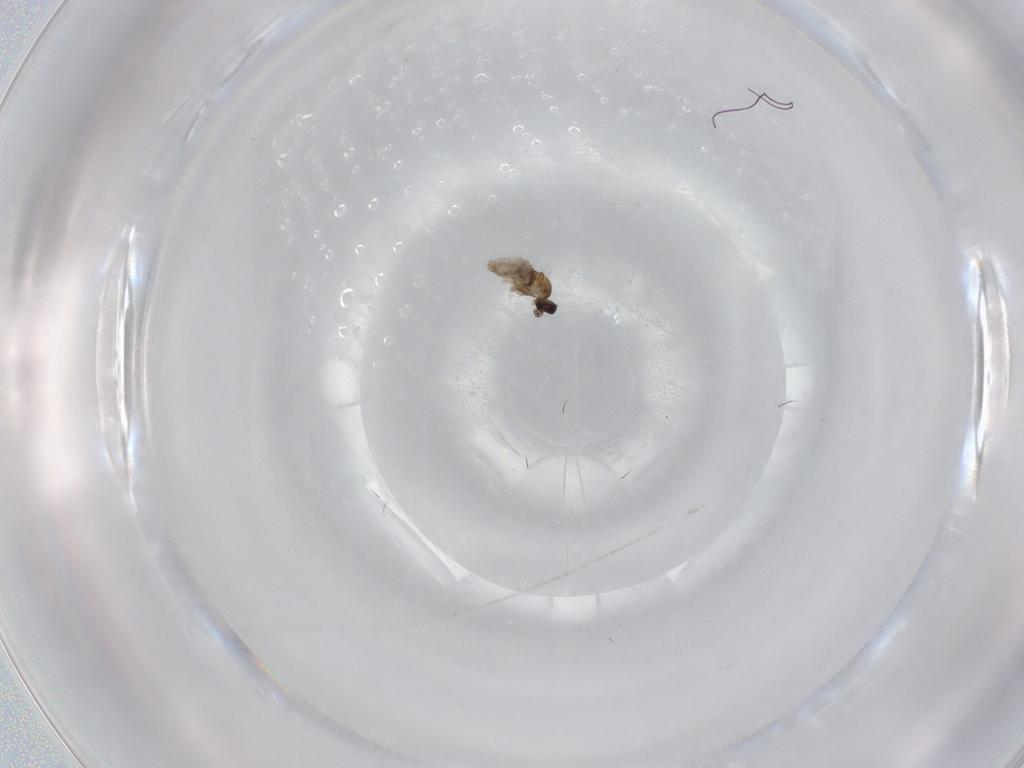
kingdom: Animalia
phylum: Arthropoda
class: Insecta
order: Diptera
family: Cecidomyiidae
